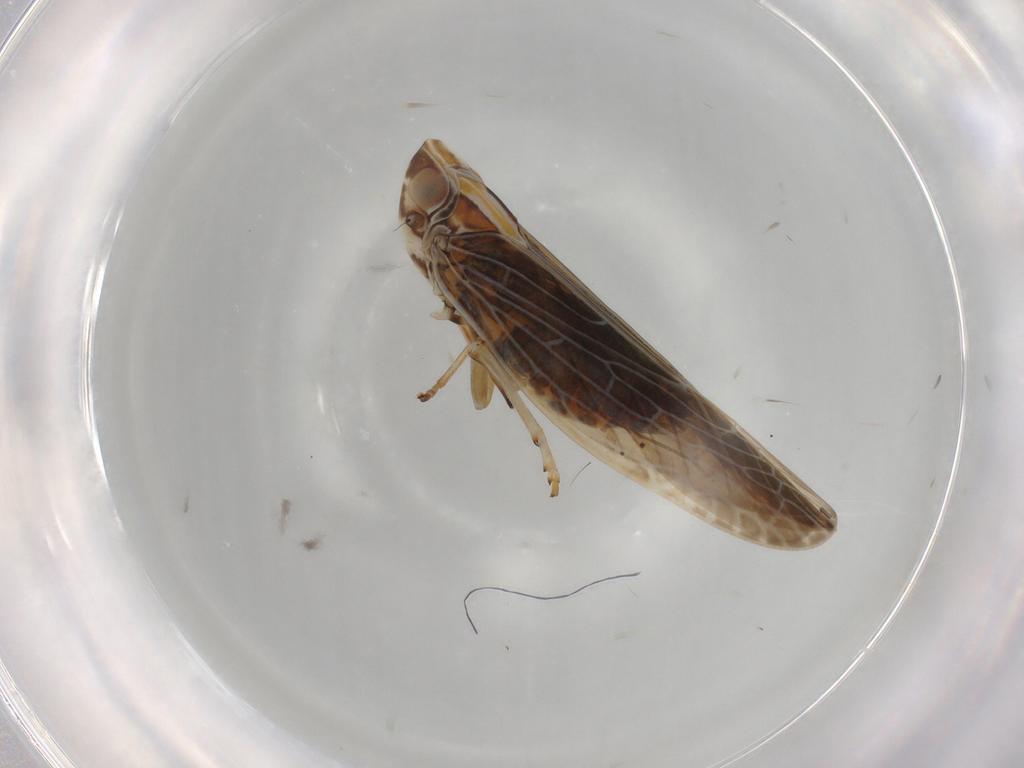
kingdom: Animalia
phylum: Arthropoda
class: Insecta
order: Hemiptera
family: Achilidae
